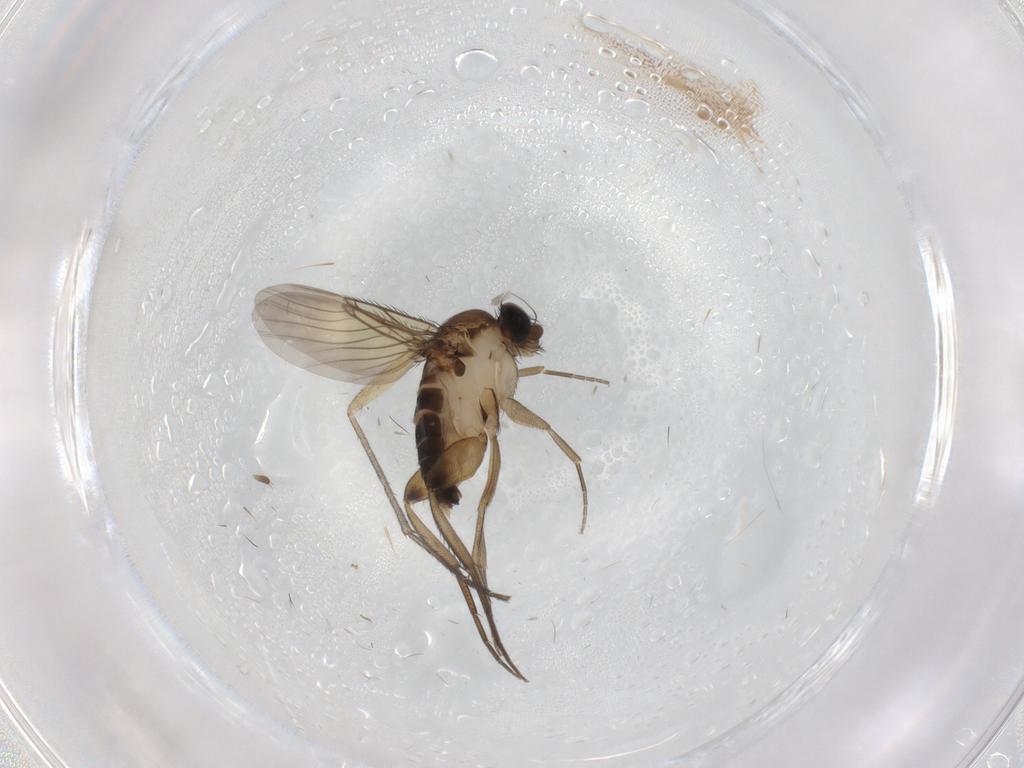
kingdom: Animalia
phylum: Arthropoda
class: Insecta
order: Diptera
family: Phoridae
